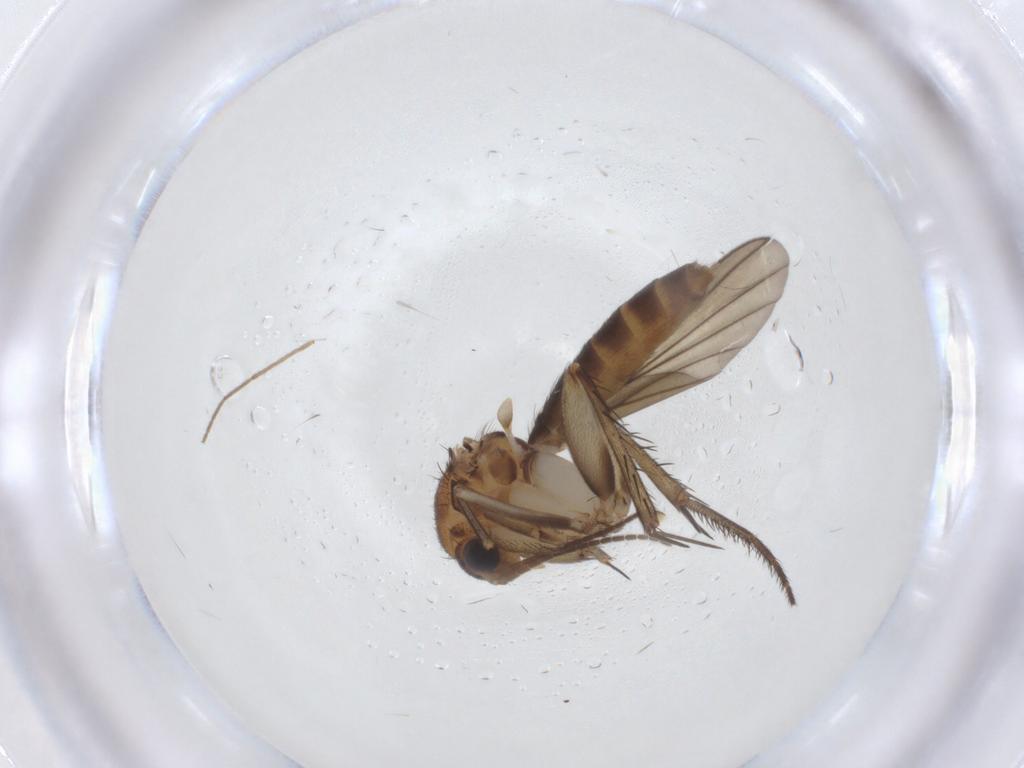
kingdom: Animalia
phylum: Arthropoda
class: Insecta
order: Diptera
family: Mycetophilidae
